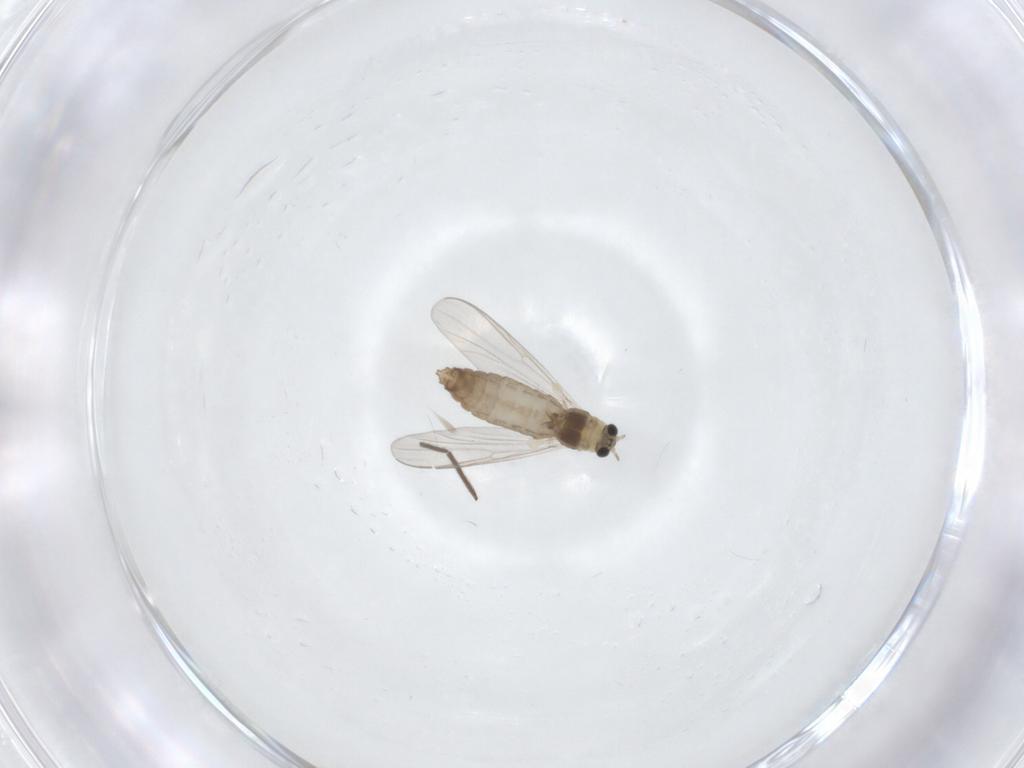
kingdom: Animalia
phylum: Arthropoda
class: Insecta
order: Diptera
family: Chironomidae
